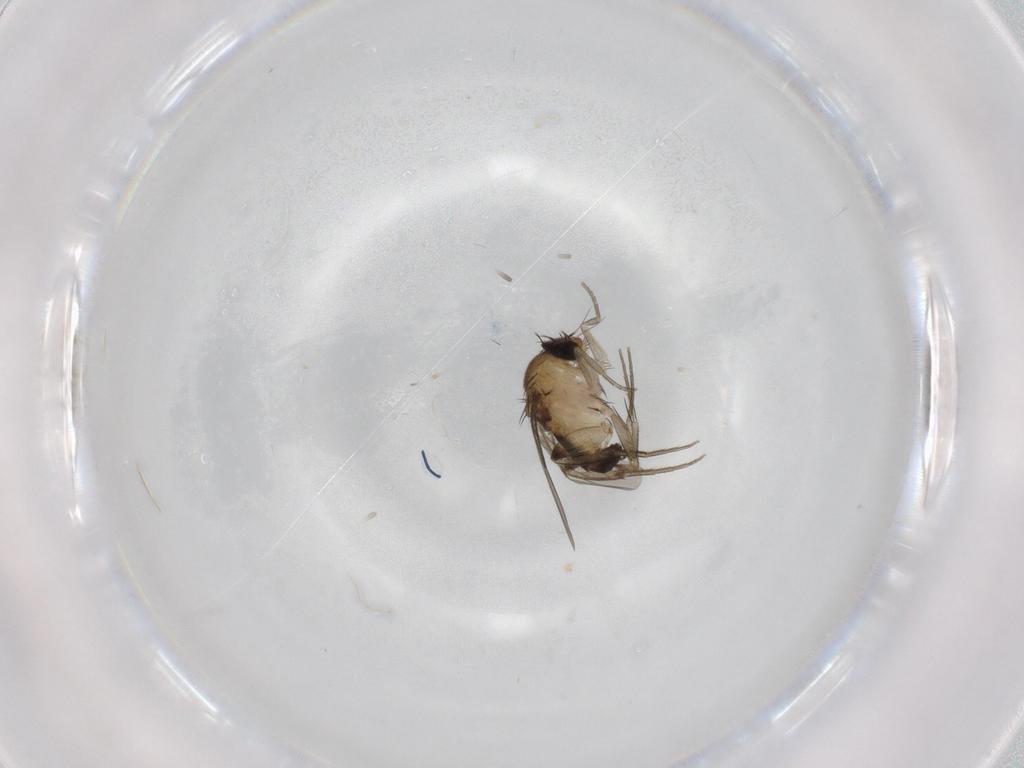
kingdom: Animalia
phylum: Arthropoda
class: Insecta
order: Diptera
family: Phoridae
